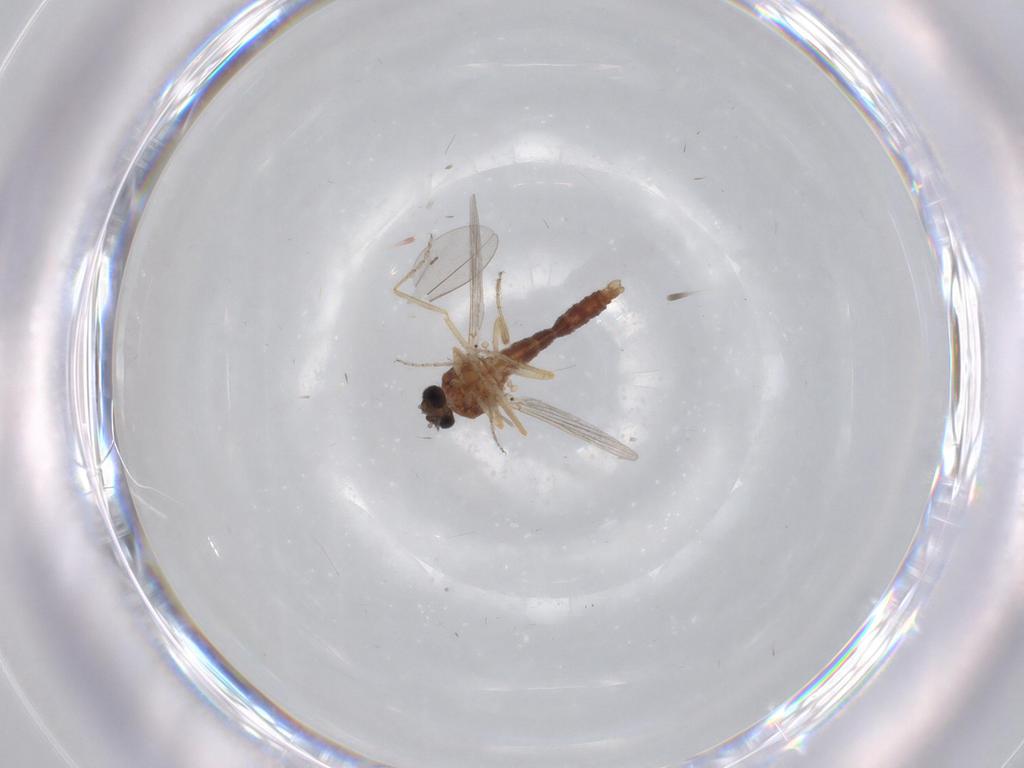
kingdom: Animalia
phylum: Arthropoda
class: Insecta
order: Diptera
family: Ceratopogonidae
